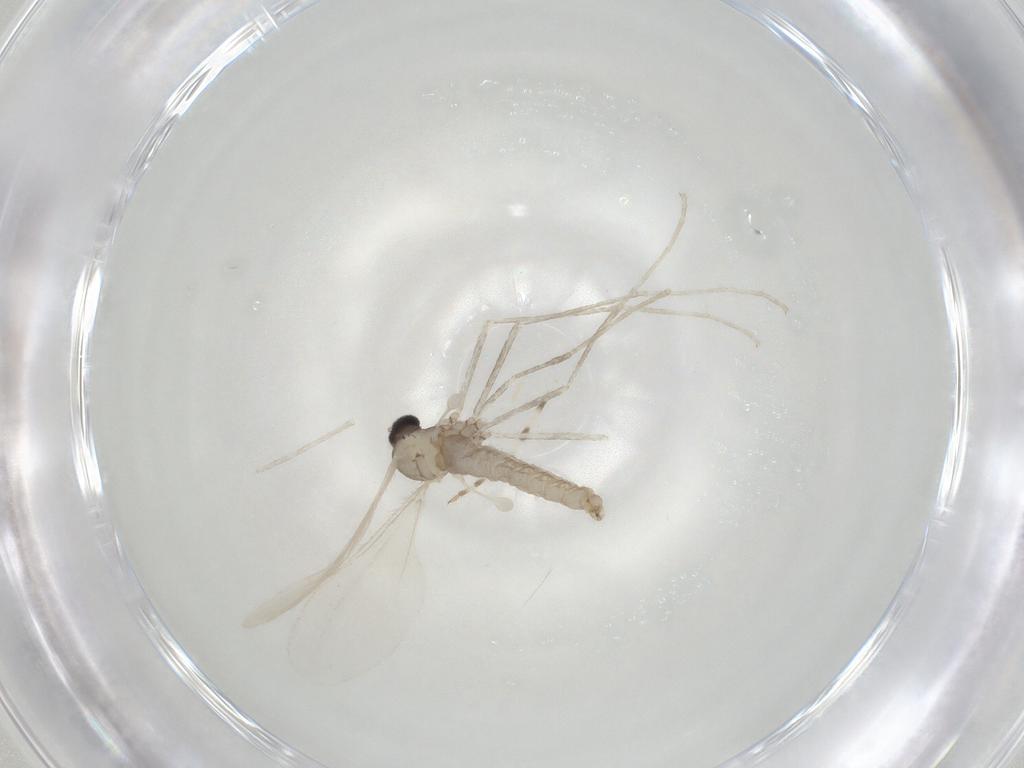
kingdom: Animalia
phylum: Arthropoda
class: Insecta
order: Diptera
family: Cecidomyiidae
